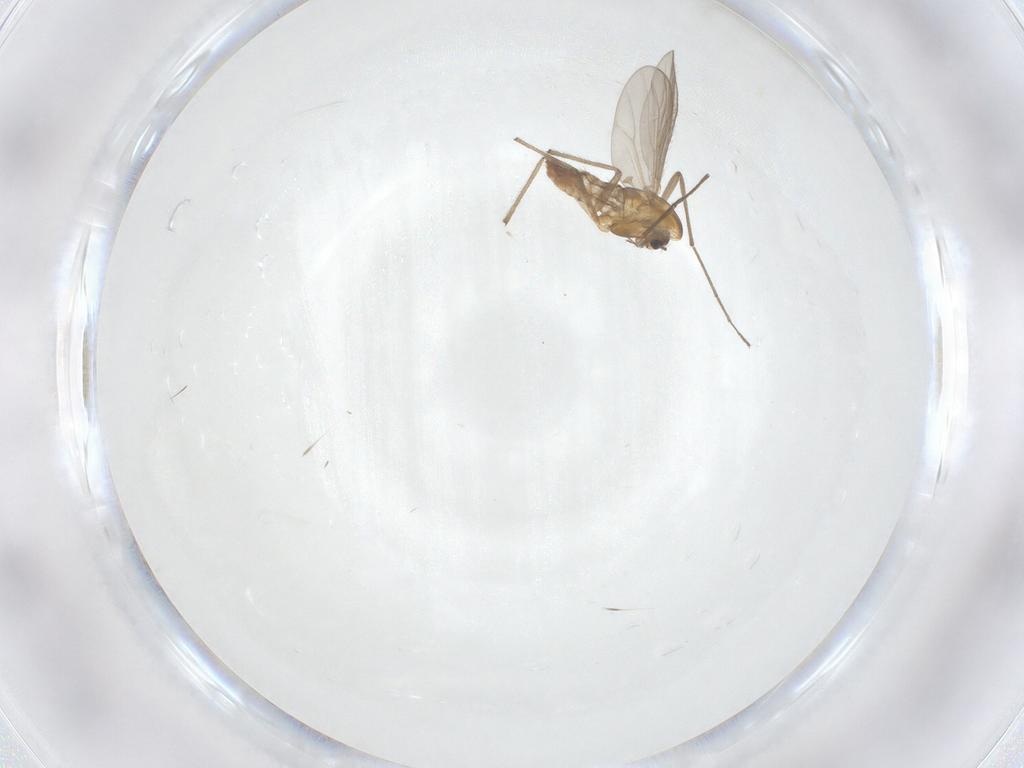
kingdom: Animalia
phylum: Arthropoda
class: Insecta
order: Diptera
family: Chironomidae
